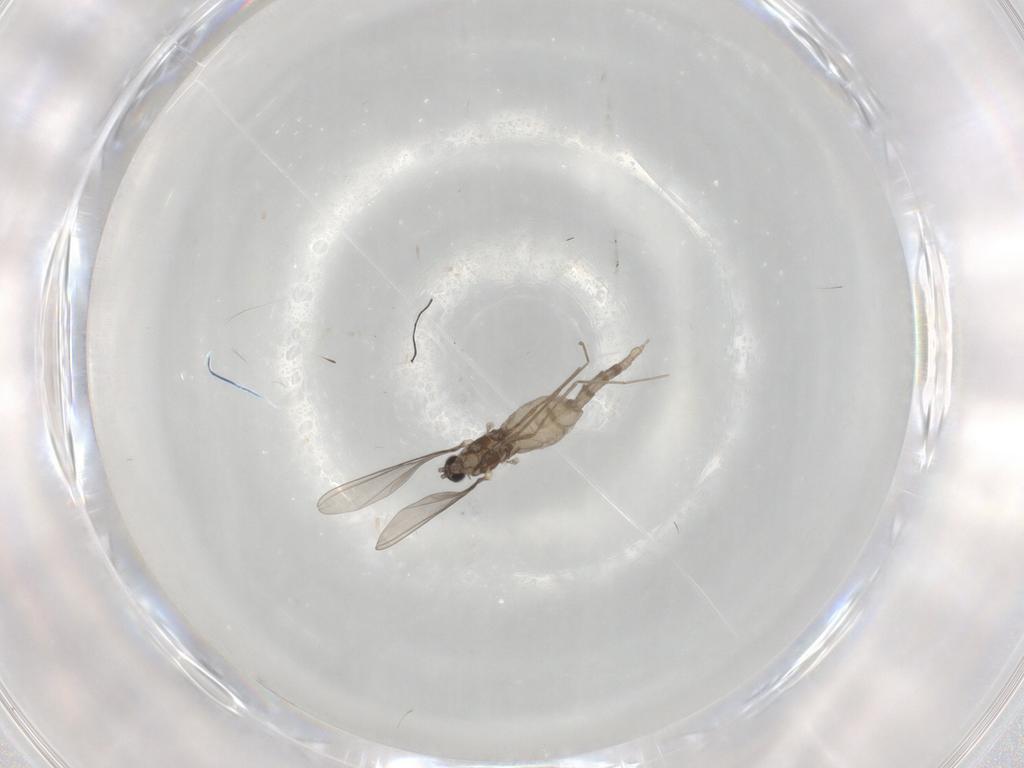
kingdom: Animalia
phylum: Arthropoda
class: Insecta
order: Diptera
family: Cecidomyiidae
